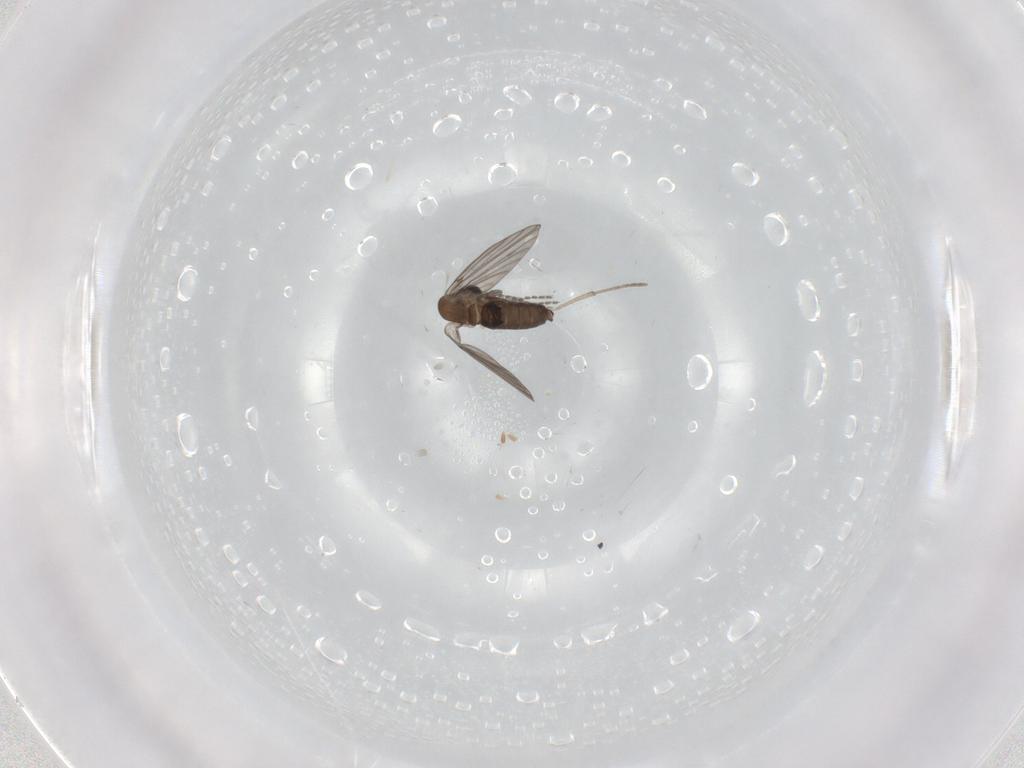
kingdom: Animalia
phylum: Arthropoda
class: Insecta
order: Diptera
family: Psychodidae
